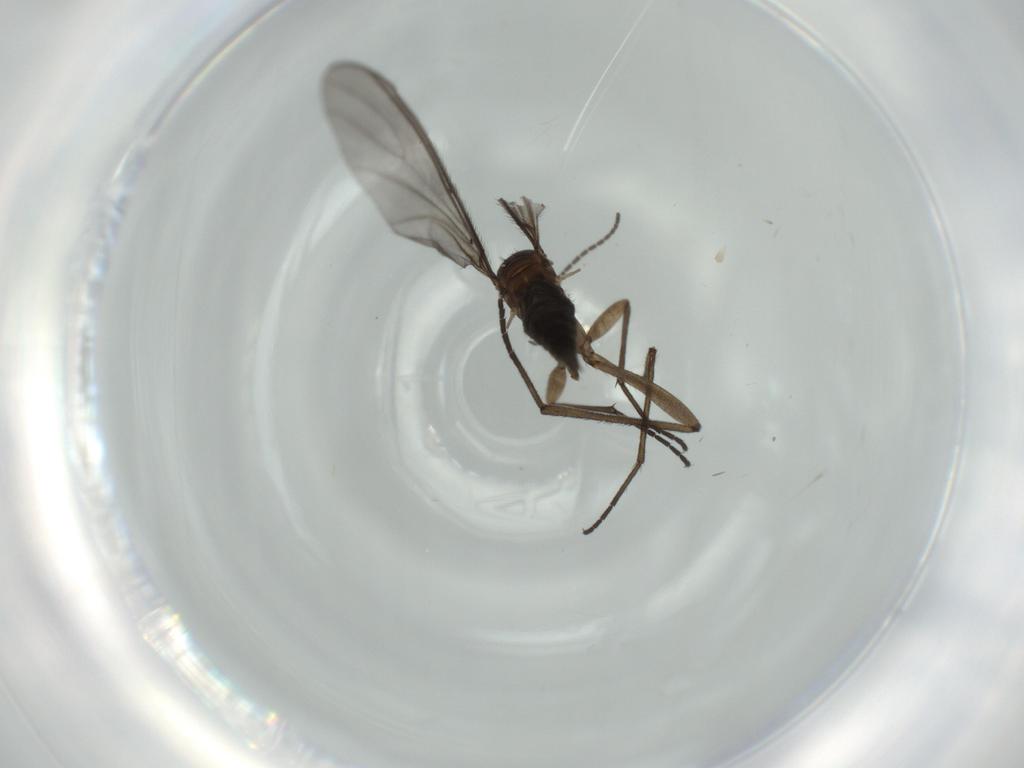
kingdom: Animalia
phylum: Arthropoda
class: Insecta
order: Diptera
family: Sciaridae
